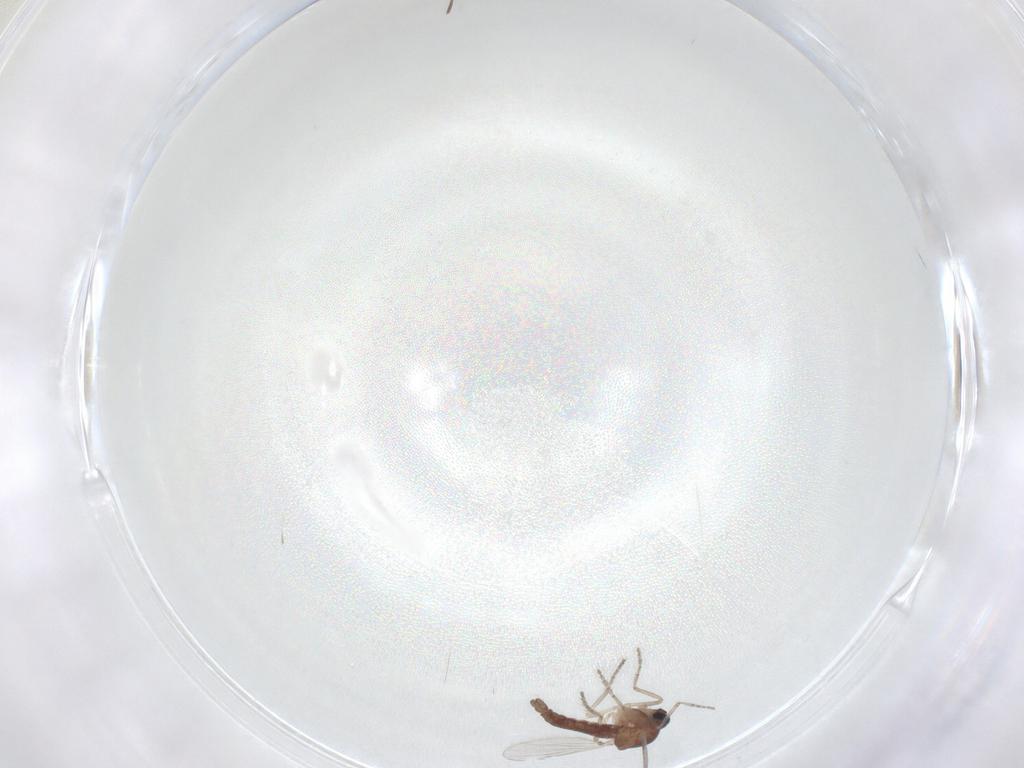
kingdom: Animalia
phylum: Arthropoda
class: Insecta
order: Diptera
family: Ceratopogonidae
